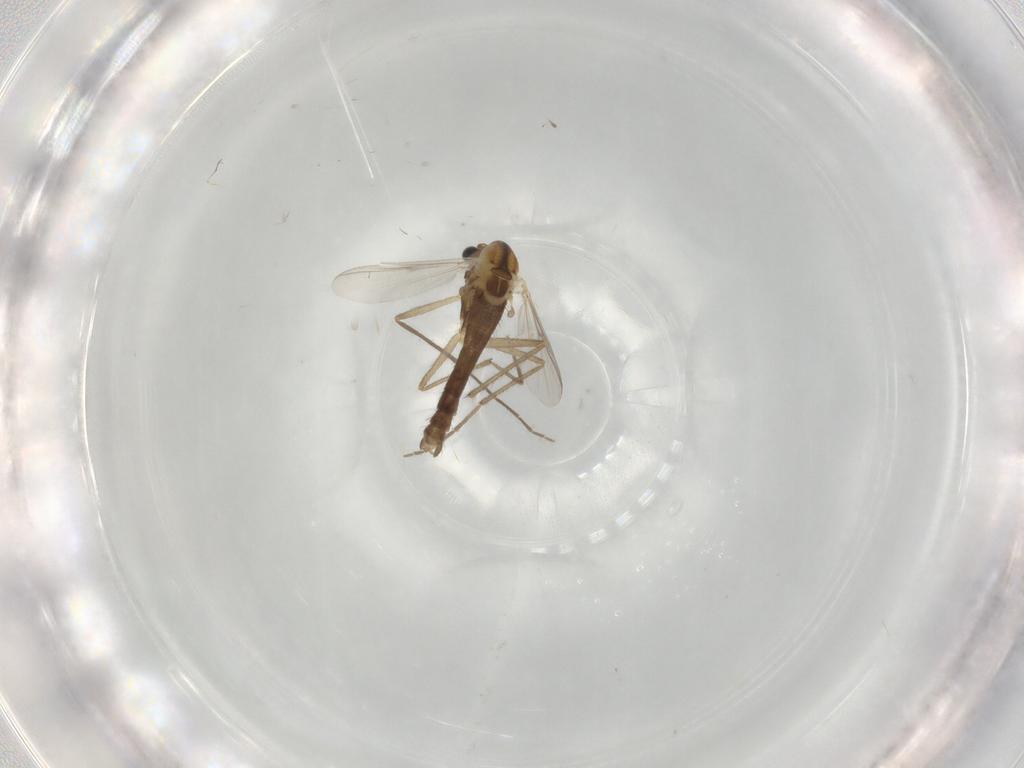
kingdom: Animalia
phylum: Arthropoda
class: Insecta
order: Diptera
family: Chironomidae
